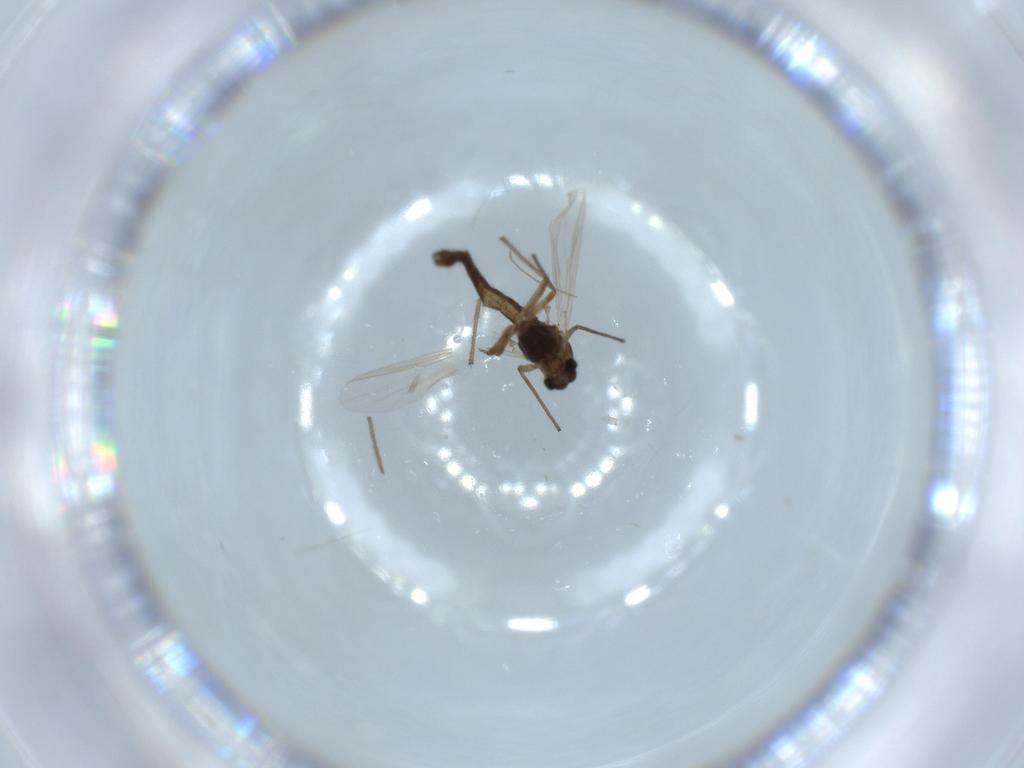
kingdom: Animalia
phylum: Arthropoda
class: Insecta
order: Diptera
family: Chironomidae
